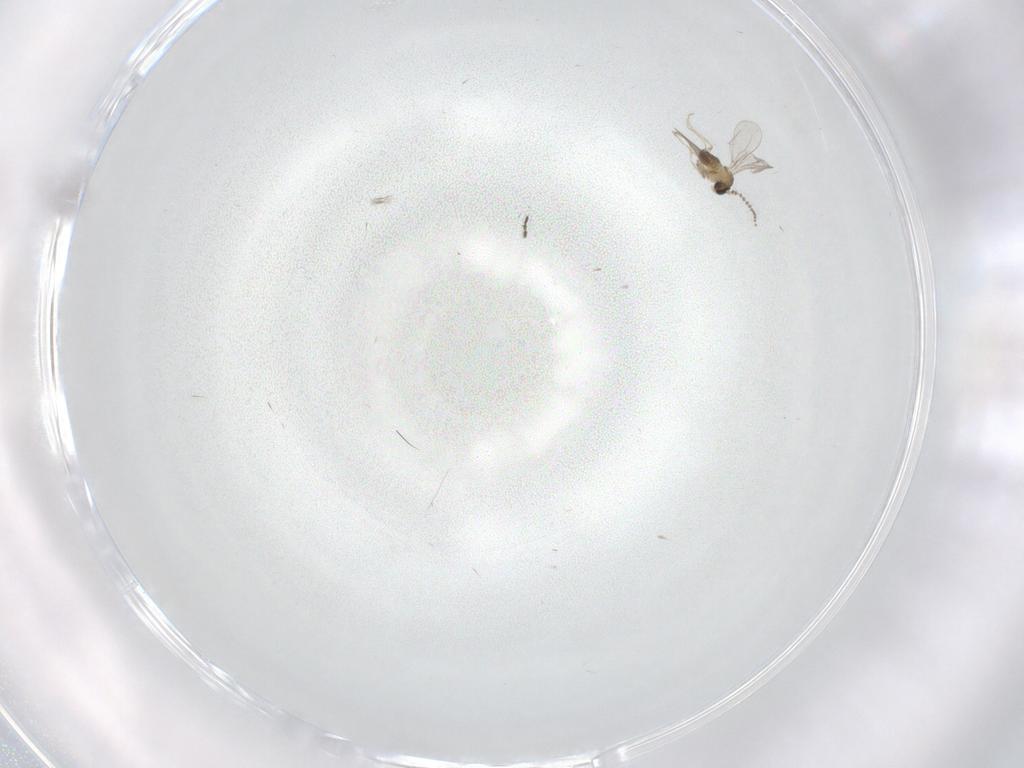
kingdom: Animalia
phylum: Arthropoda
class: Insecta
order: Diptera
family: Cecidomyiidae
